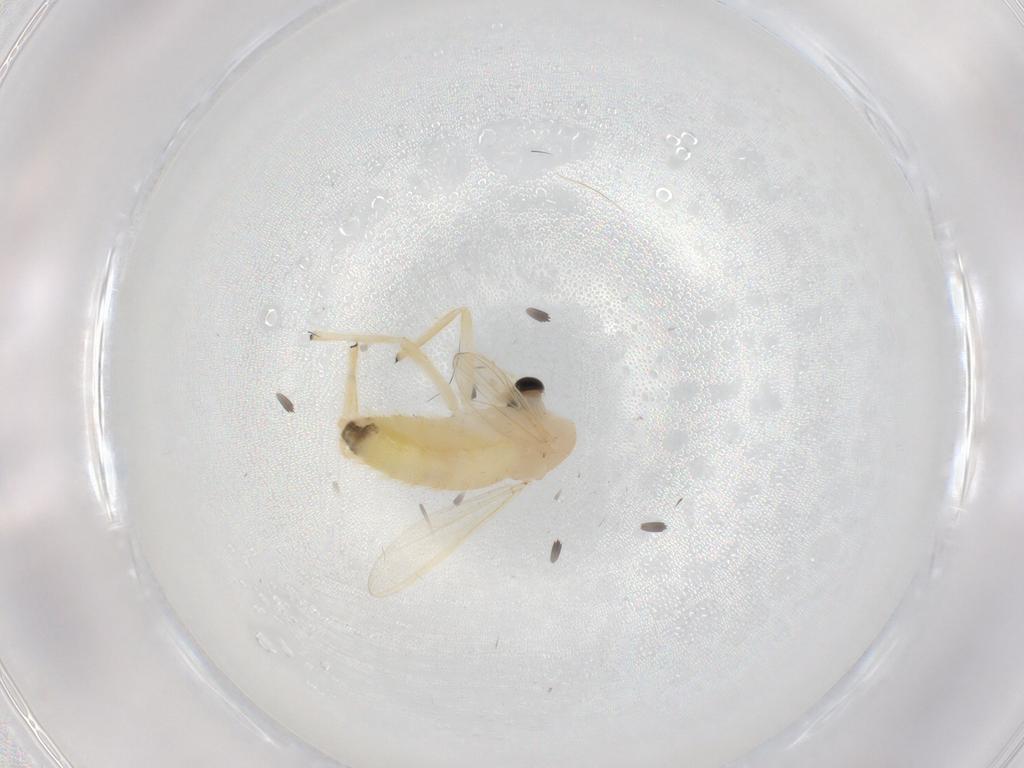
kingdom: Animalia
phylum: Arthropoda
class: Insecta
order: Diptera
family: Chironomidae
